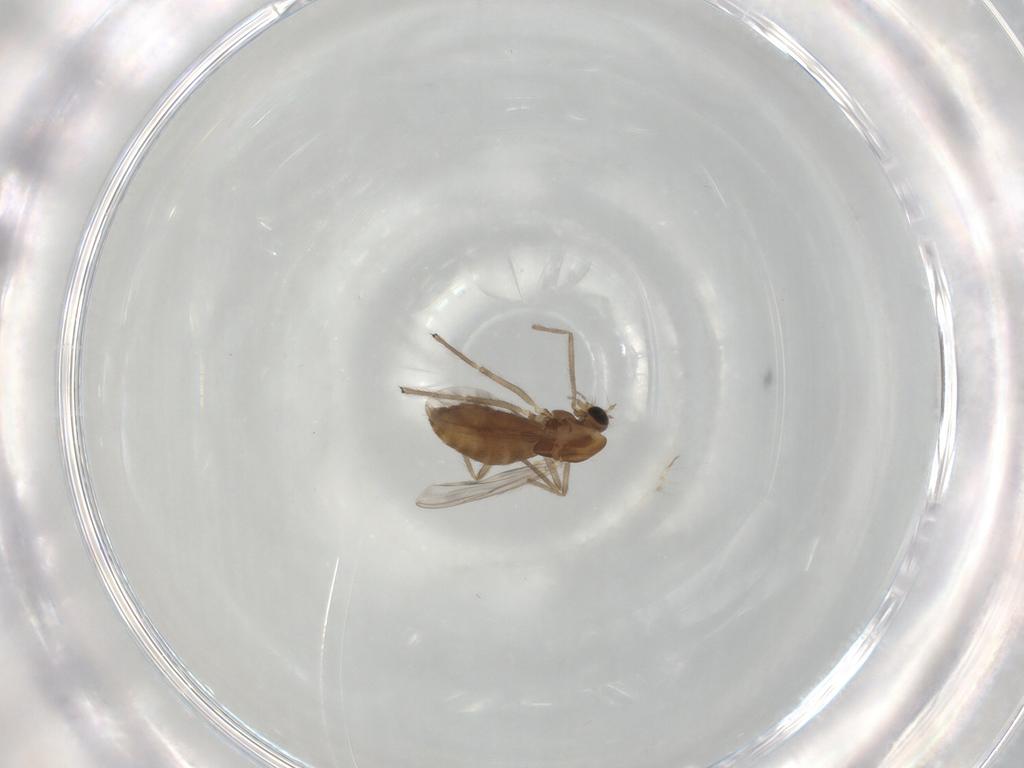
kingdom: Animalia
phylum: Arthropoda
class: Insecta
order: Diptera
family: Chironomidae
